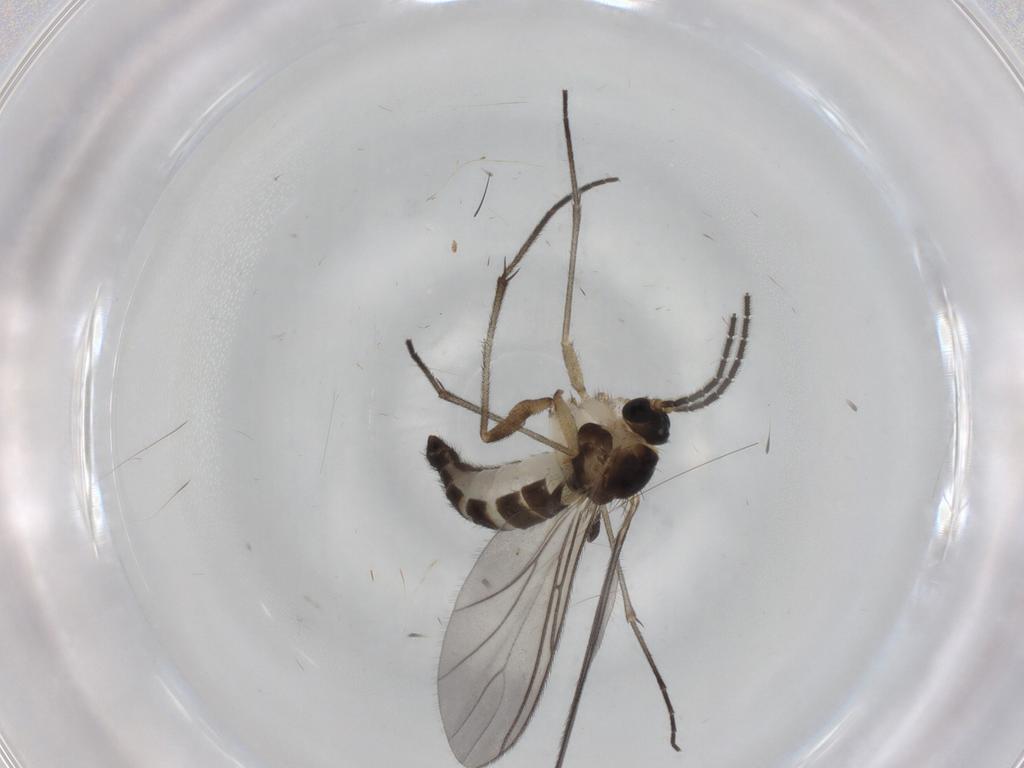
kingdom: Animalia
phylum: Arthropoda
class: Insecta
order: Diptera
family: Sciaridae
